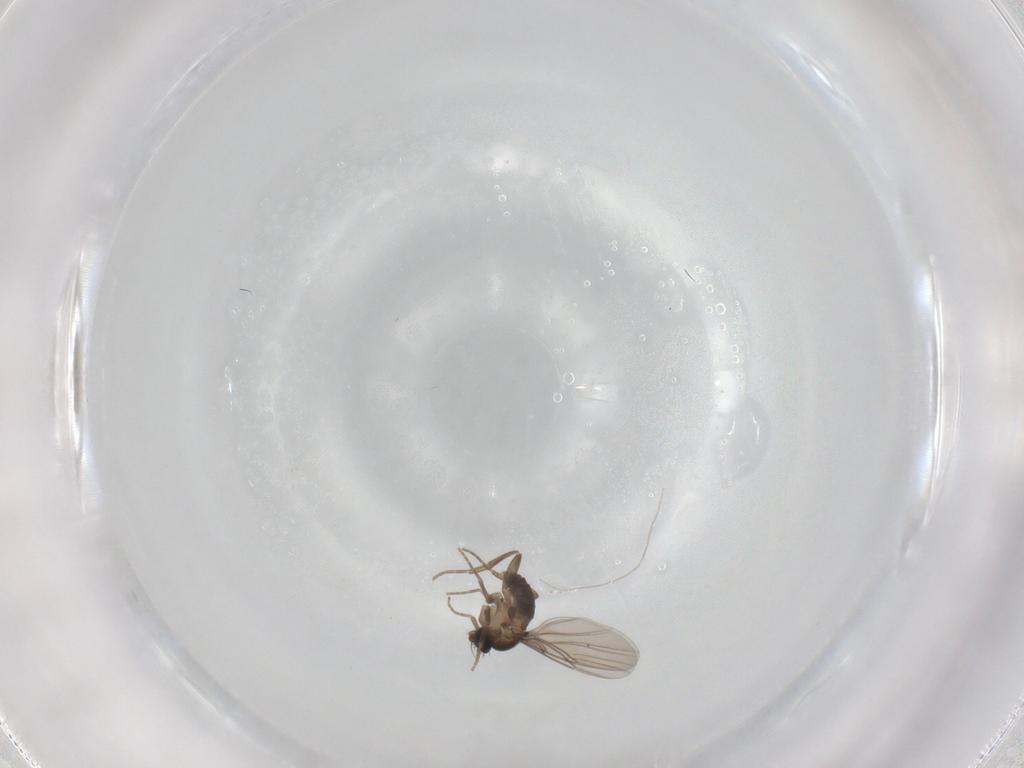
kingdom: Animalia
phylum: Arthropoda
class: Insecta
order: Diptera
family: Phoridae
